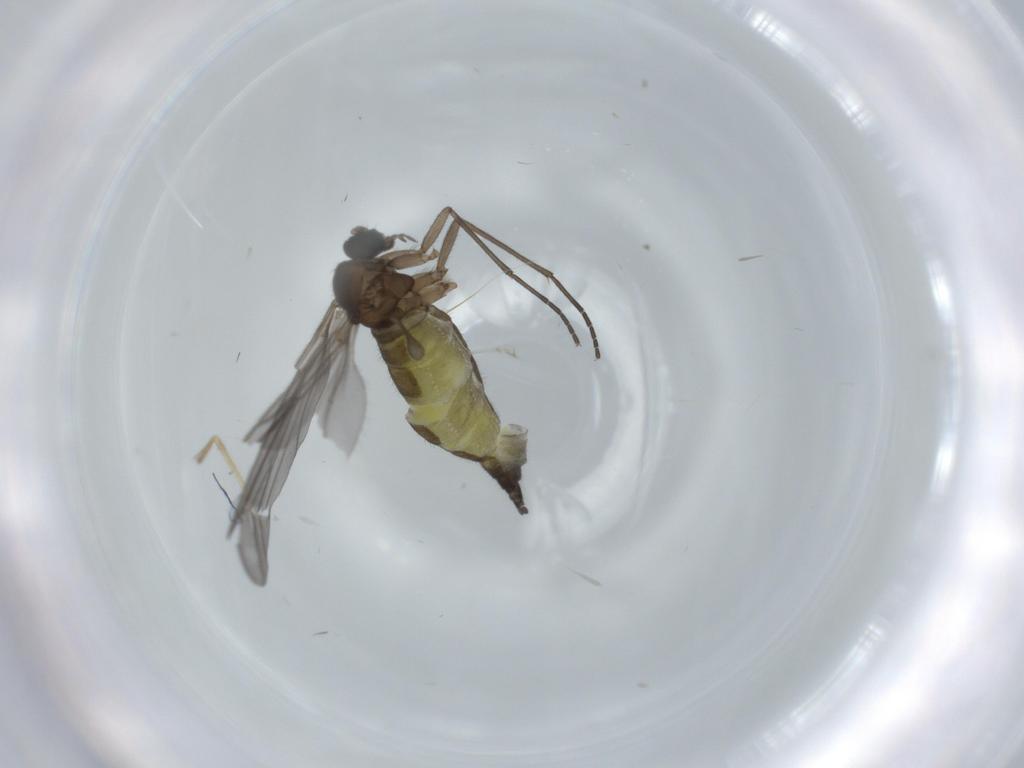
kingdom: Animalia
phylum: Arthropoda
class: Insecta
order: Diptera
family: Sciaridae
